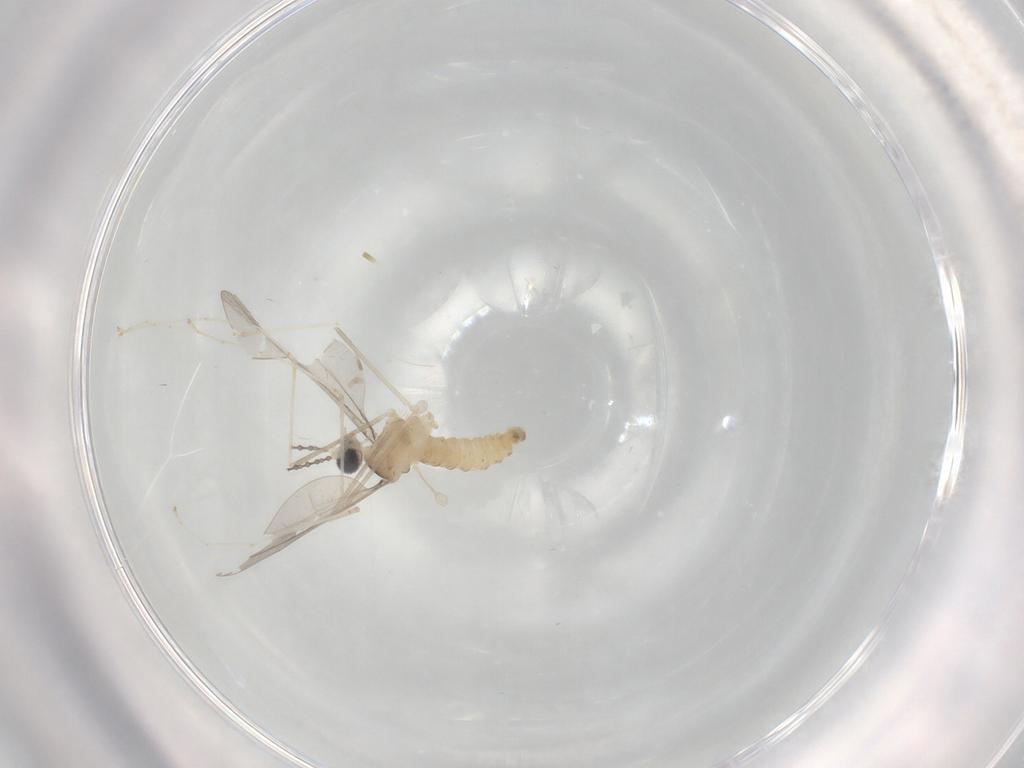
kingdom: Animalia
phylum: Arthropoda
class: Insecta
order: Diptera
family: Cecidomyiidae
